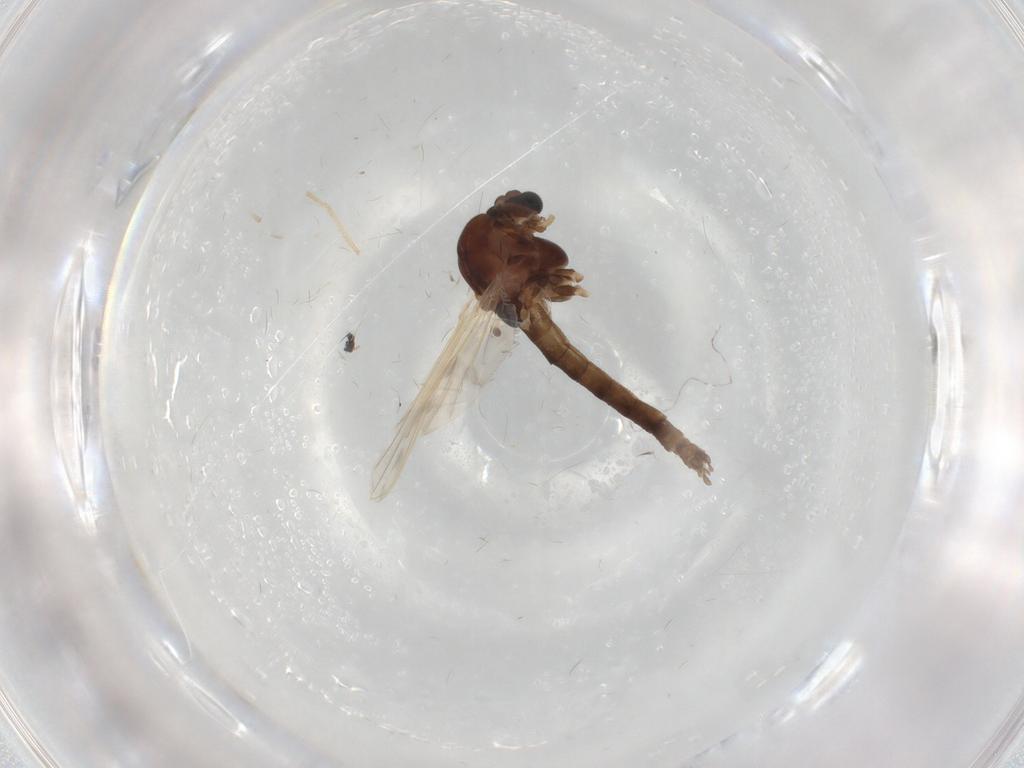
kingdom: Animalia
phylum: Arthropoda
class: Insecta
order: Diptera
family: Chironomidae
